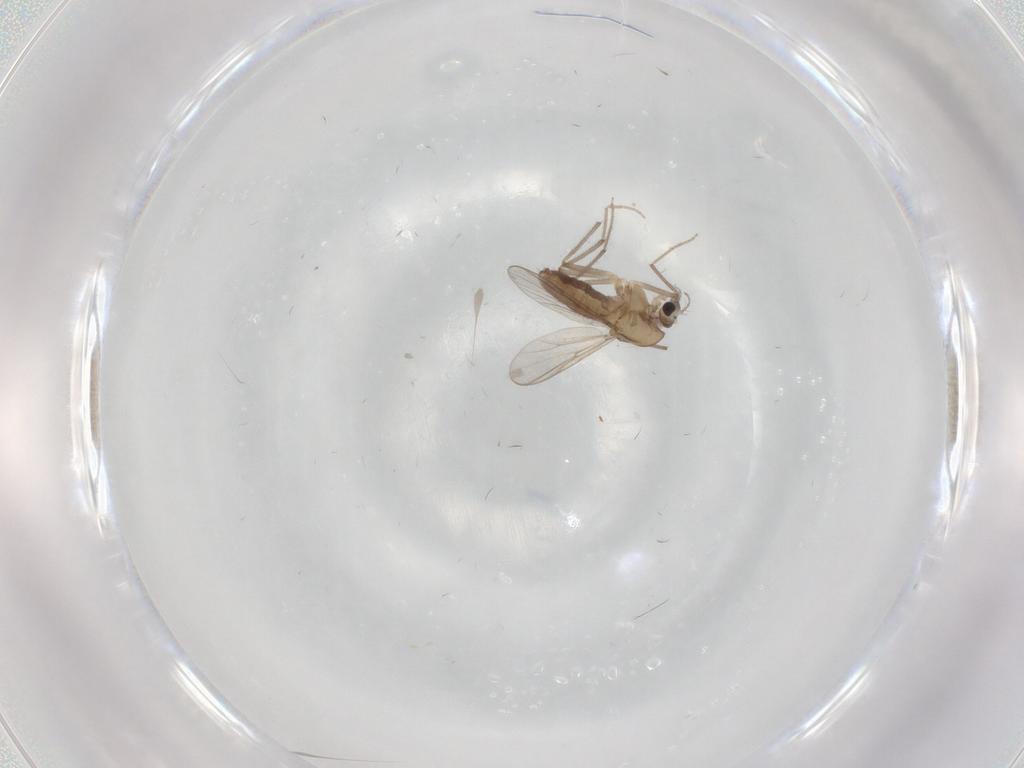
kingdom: Animalia
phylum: Arthropoda
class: Insecta
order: Diptera
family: Chironomidae
